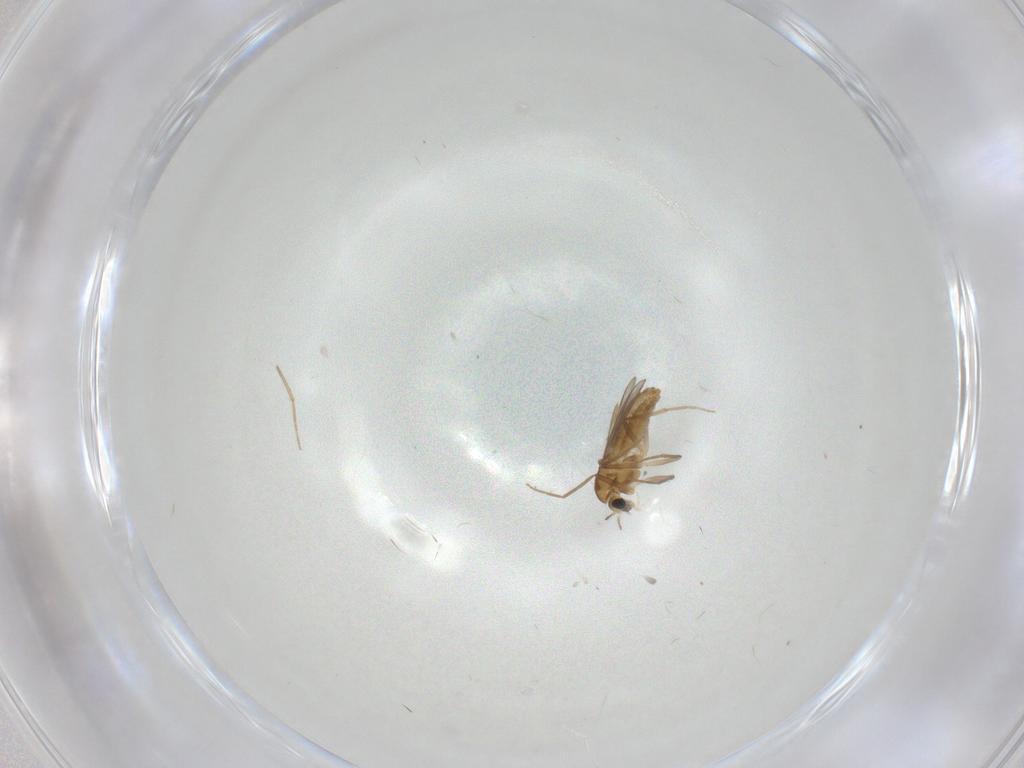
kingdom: Animalia
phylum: Arthropoda
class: Insecta
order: Diptera
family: Chironomidae
